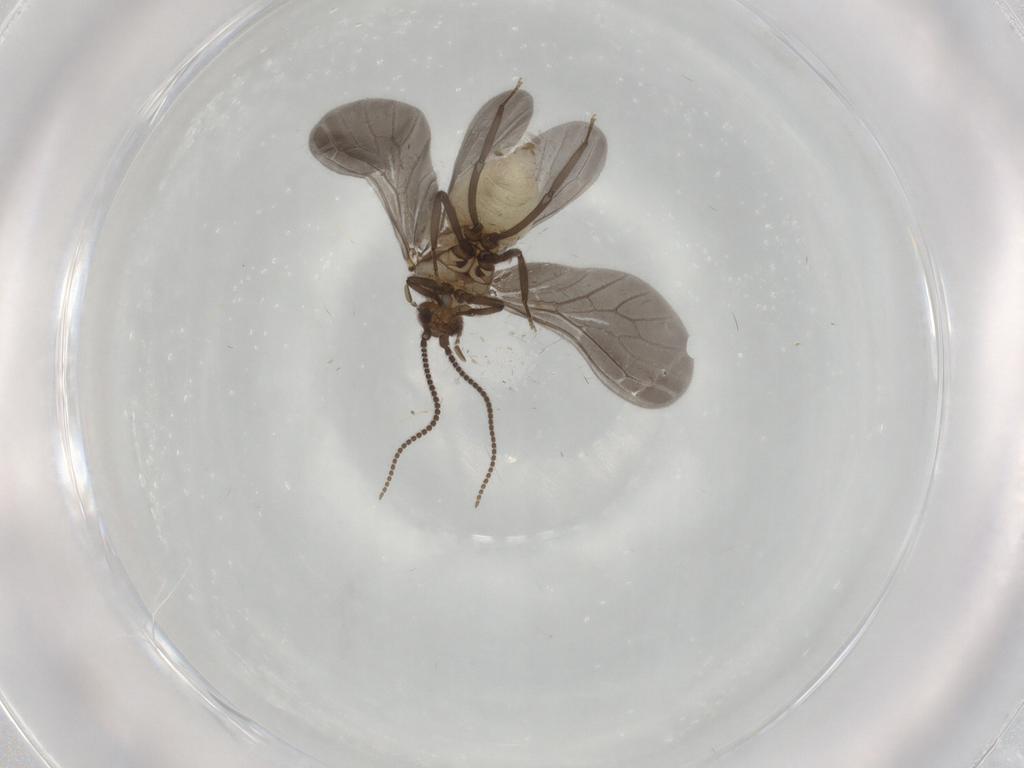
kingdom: Animalia
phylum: Arthropoda
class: Insecta
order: Neuroptera
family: Coniopterygidae
